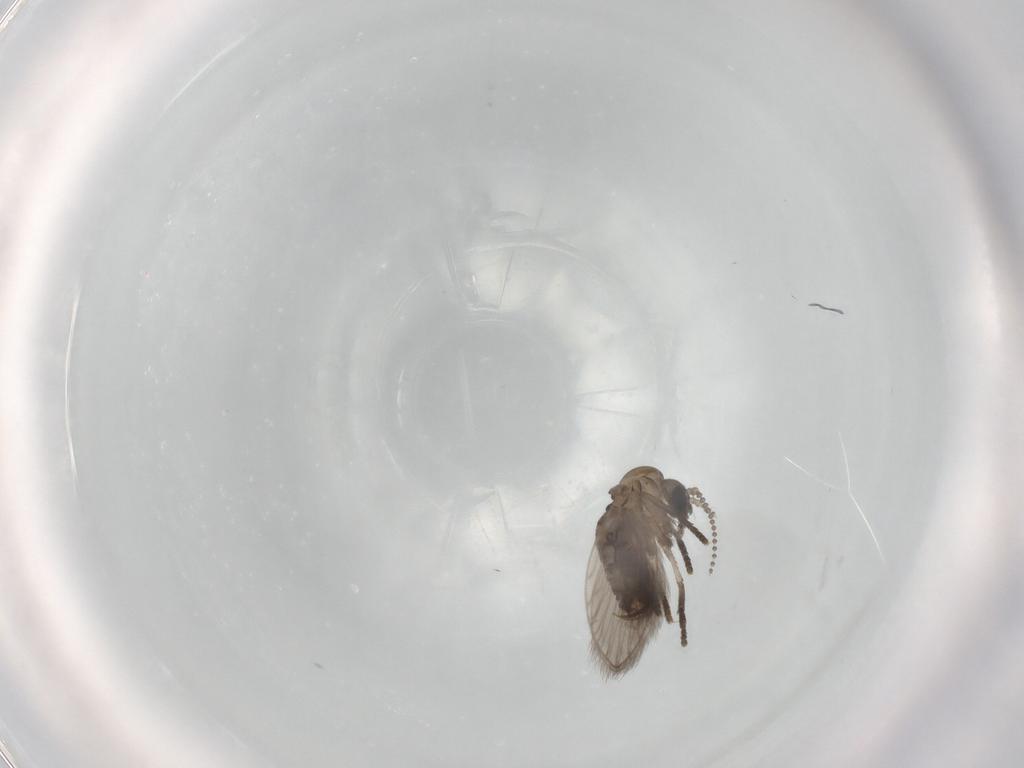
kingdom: Animalia
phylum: Arthropoda
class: Insecta
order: Diptera
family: Psychodidae
